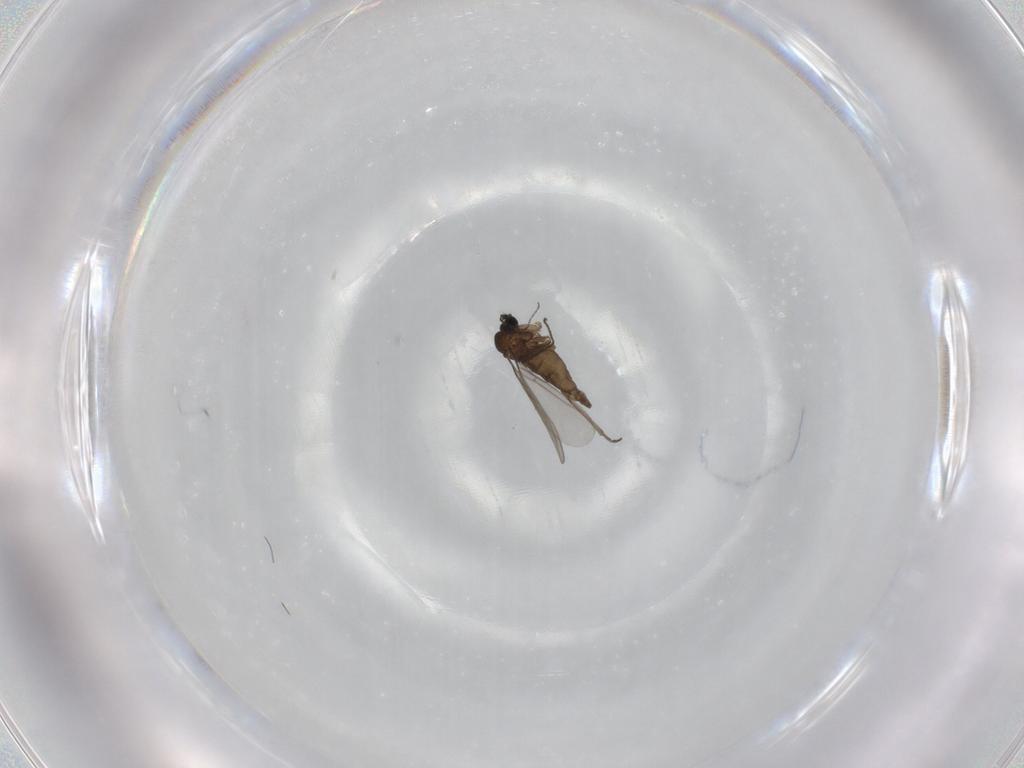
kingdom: Animalia
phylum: Arthropoda
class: Insecta
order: Diptera
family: Sciaridae
